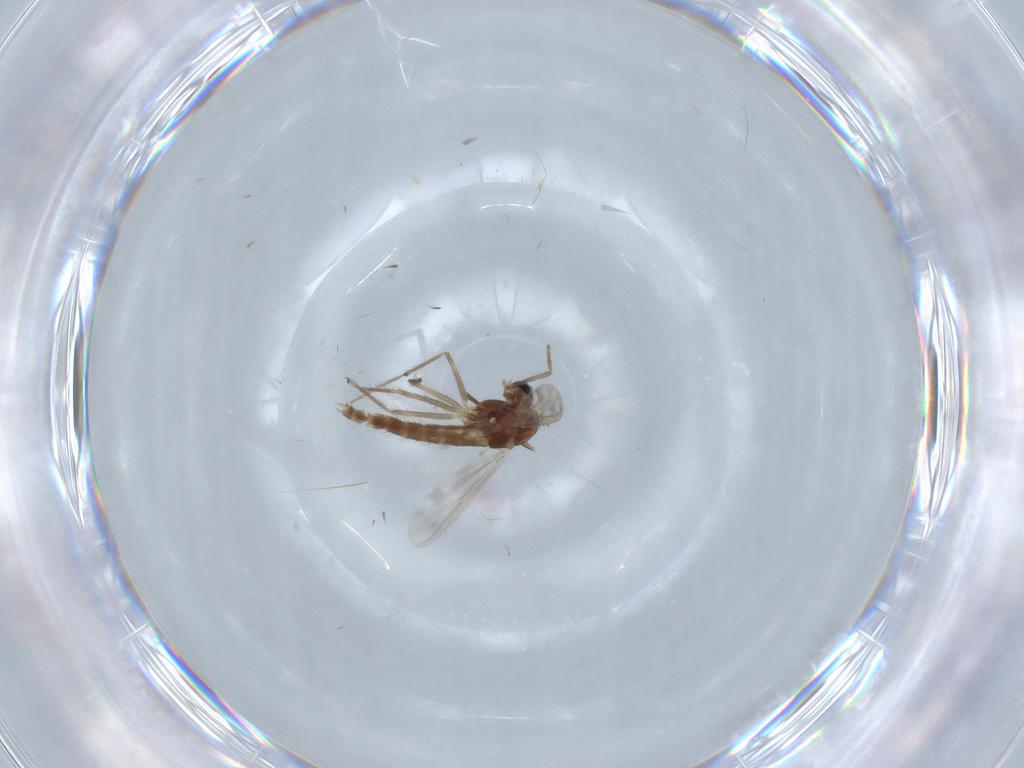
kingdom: Animalia
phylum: Arthropoda
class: Insecta
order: Diptera
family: Chironomidae
